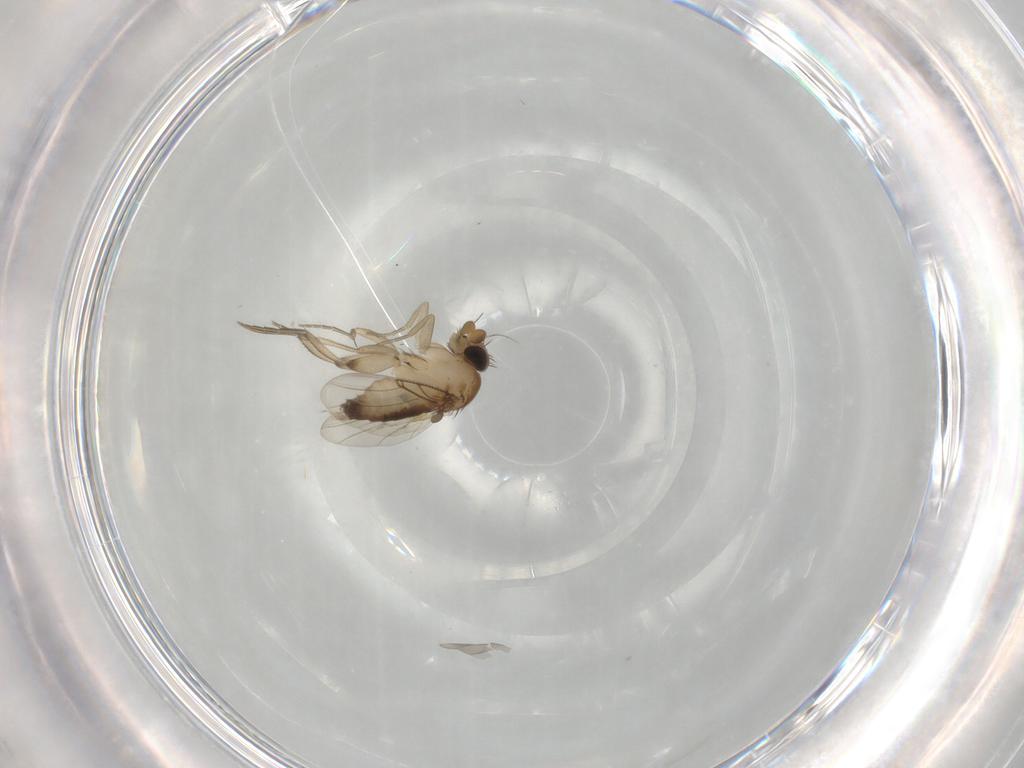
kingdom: Animalia
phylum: Arthropoda
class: Insecta
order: Diptera
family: Phoridae
